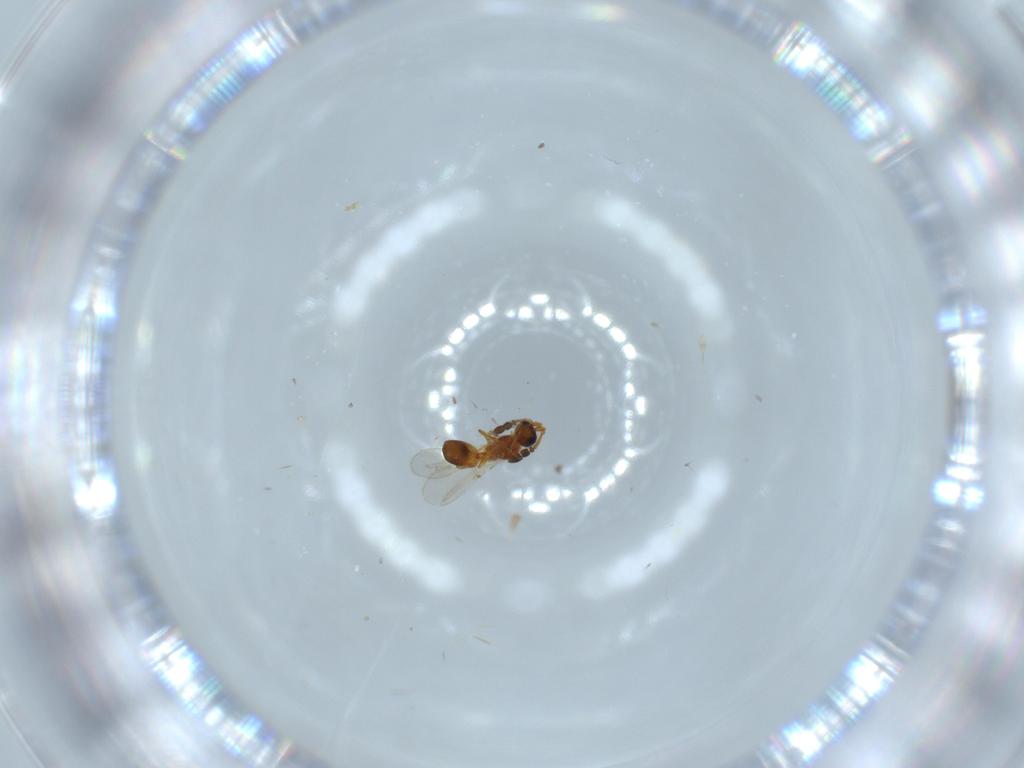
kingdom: Animalia
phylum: Arthropoda
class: Insecta
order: Hymenoptera
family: Diapriidae
